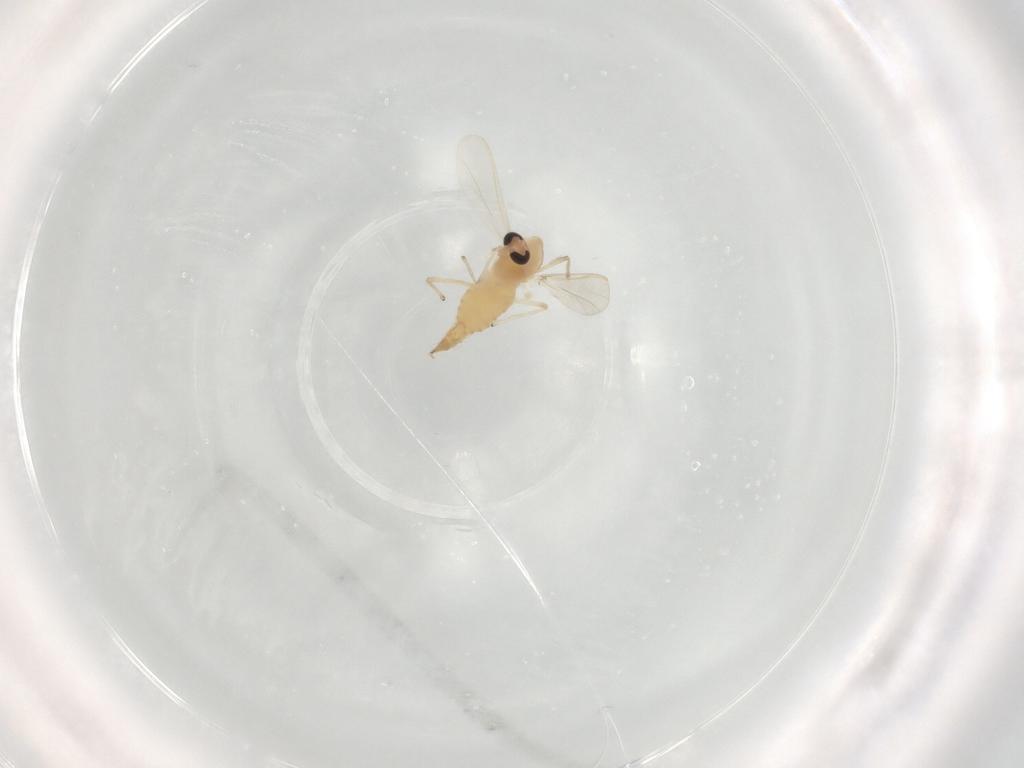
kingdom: Animalia
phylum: Arthropoda
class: Insecta
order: Diptera
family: Chironomidae
